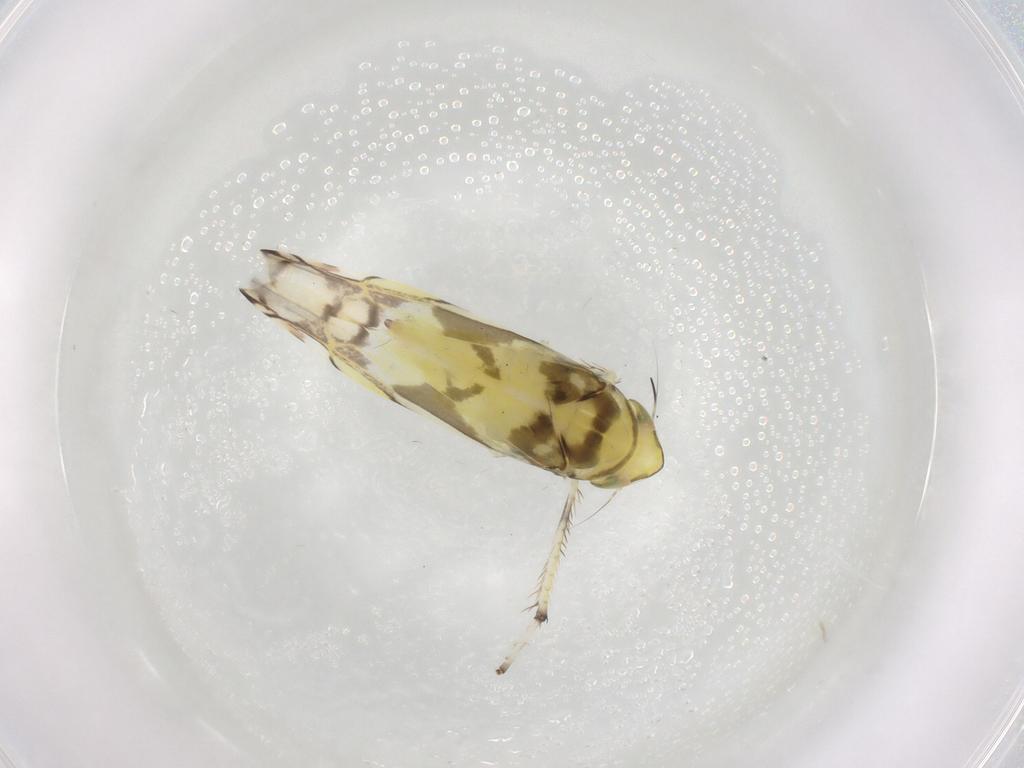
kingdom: Animalia
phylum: Arthropoda
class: Insecta
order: Hemiptera
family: Cicadellidae
